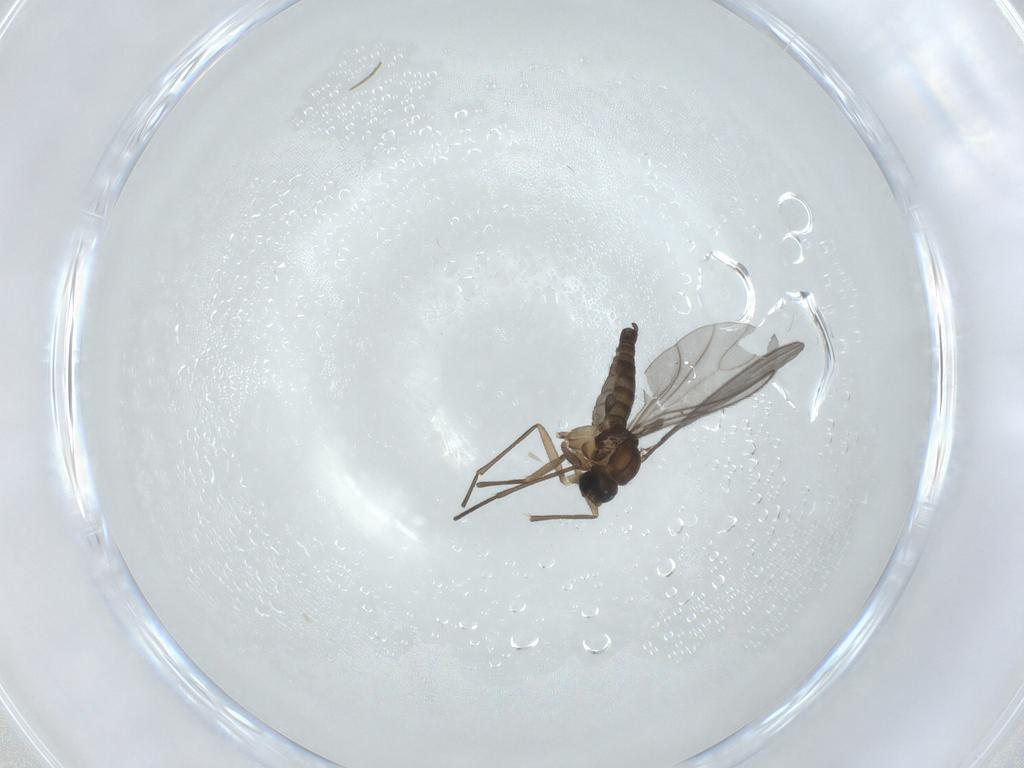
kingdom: Animalia
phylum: Arthropoda
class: Insecta
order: Diptera
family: Sciaridae
